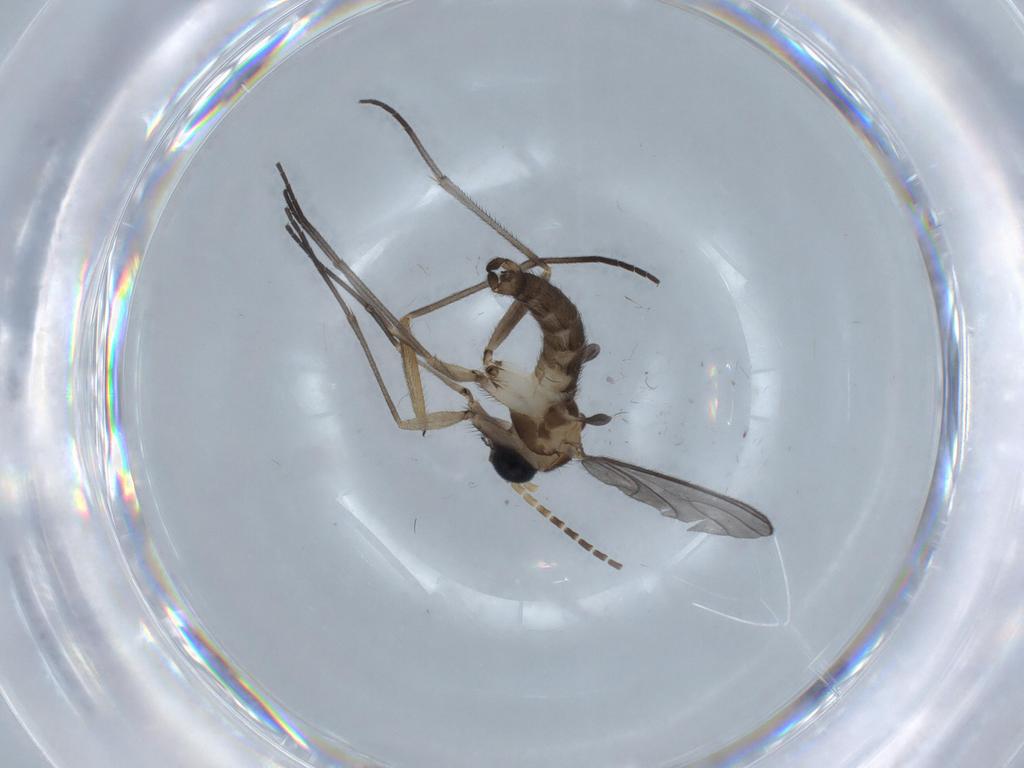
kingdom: Animalia
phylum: Arthropoda
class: Insecta
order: Diptera
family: Sciaridae
